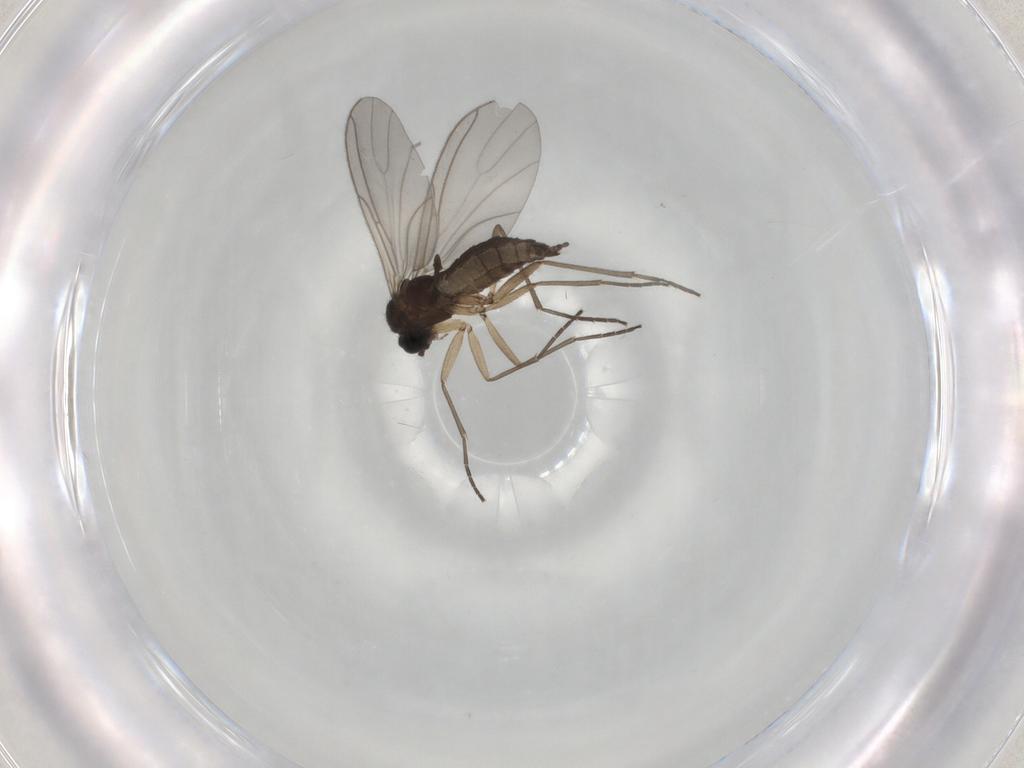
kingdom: Animalia
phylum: Arthropoda
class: Insecta
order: Diptera
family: Sciaridae
